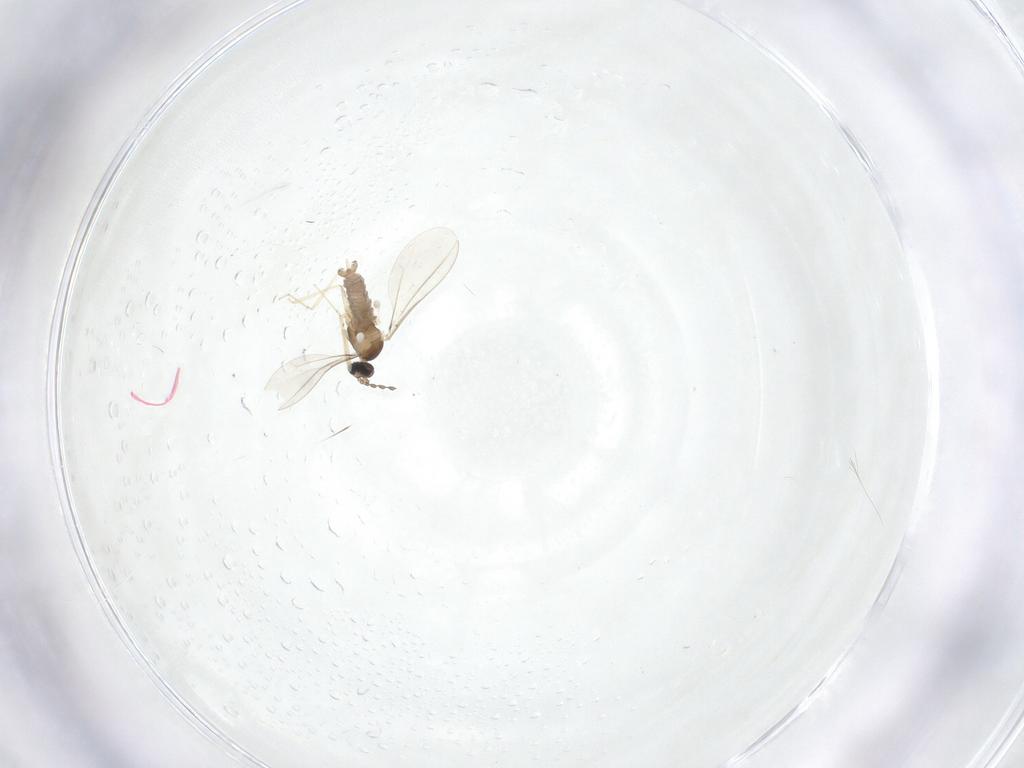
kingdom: Animalia
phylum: Arthropoda
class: Insecta
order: Diptera
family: Cecidomyiidae
